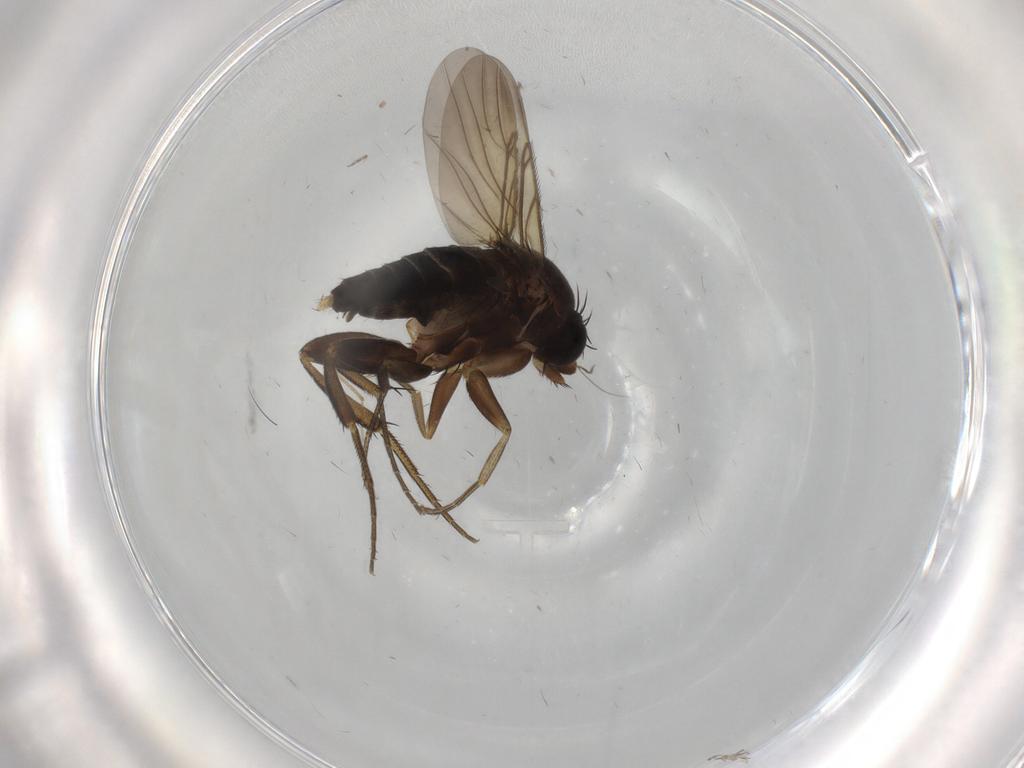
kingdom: Animalia
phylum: Arthropoda
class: Insecta
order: Diptera
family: Phoridae
